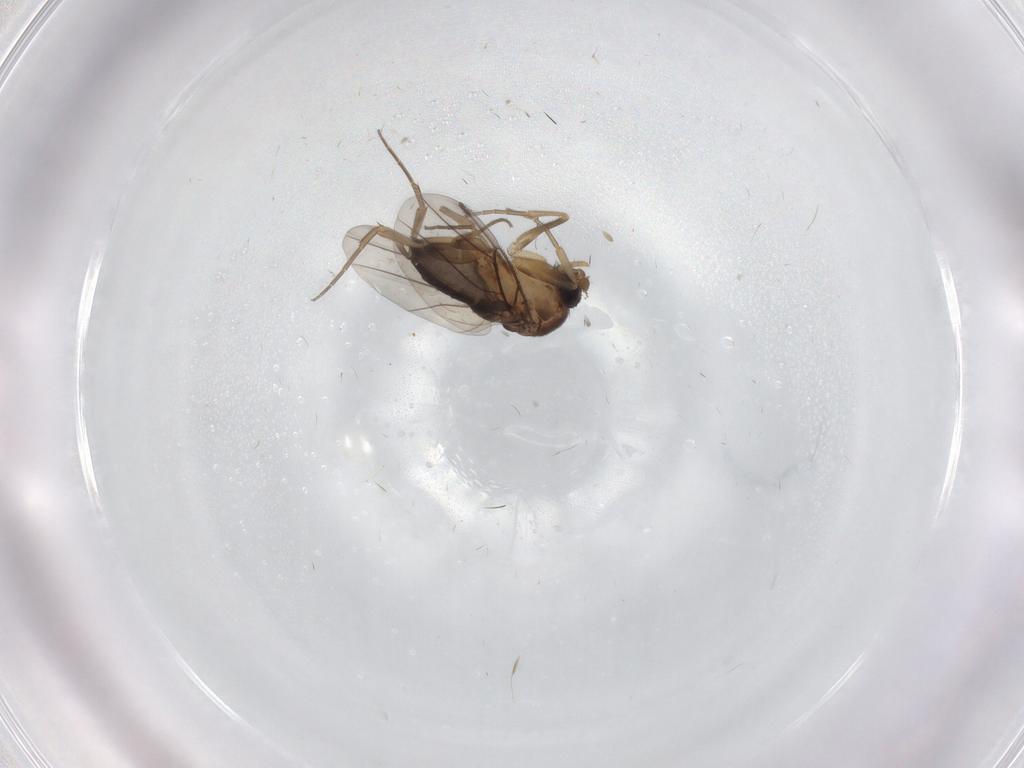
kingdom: Animalia
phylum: Arthropoda
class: Insecta
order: Diptera
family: Phoridae
